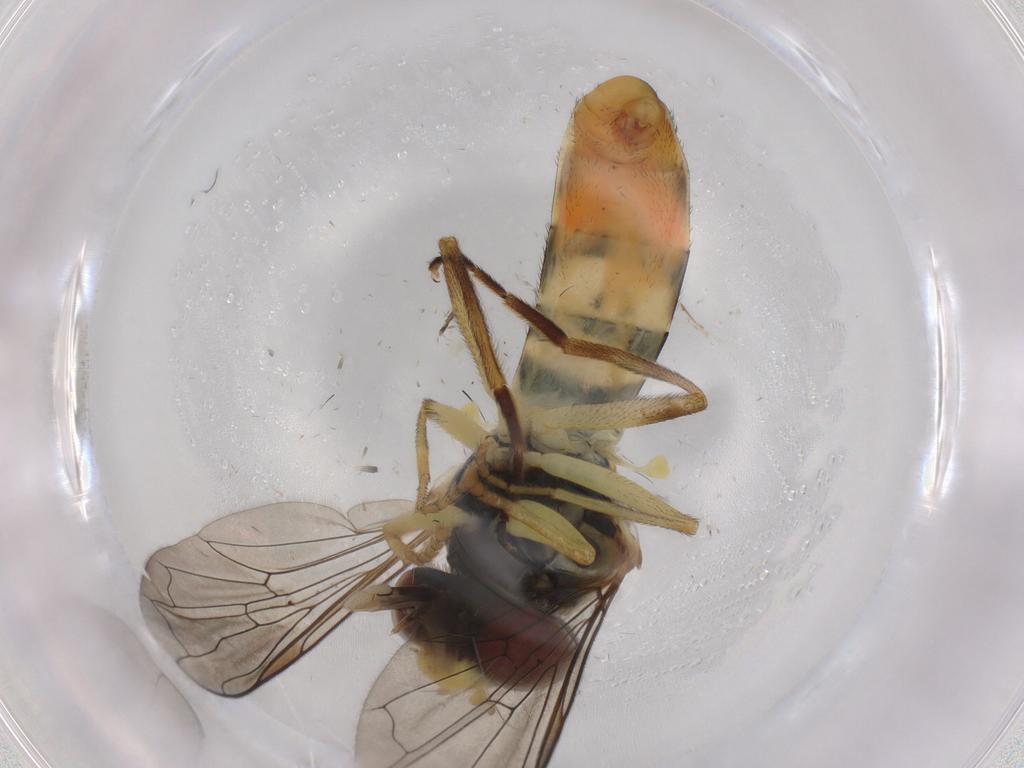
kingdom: Animalia
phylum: Arthropoda
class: Insecta
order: Diptera
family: Syrphidae
